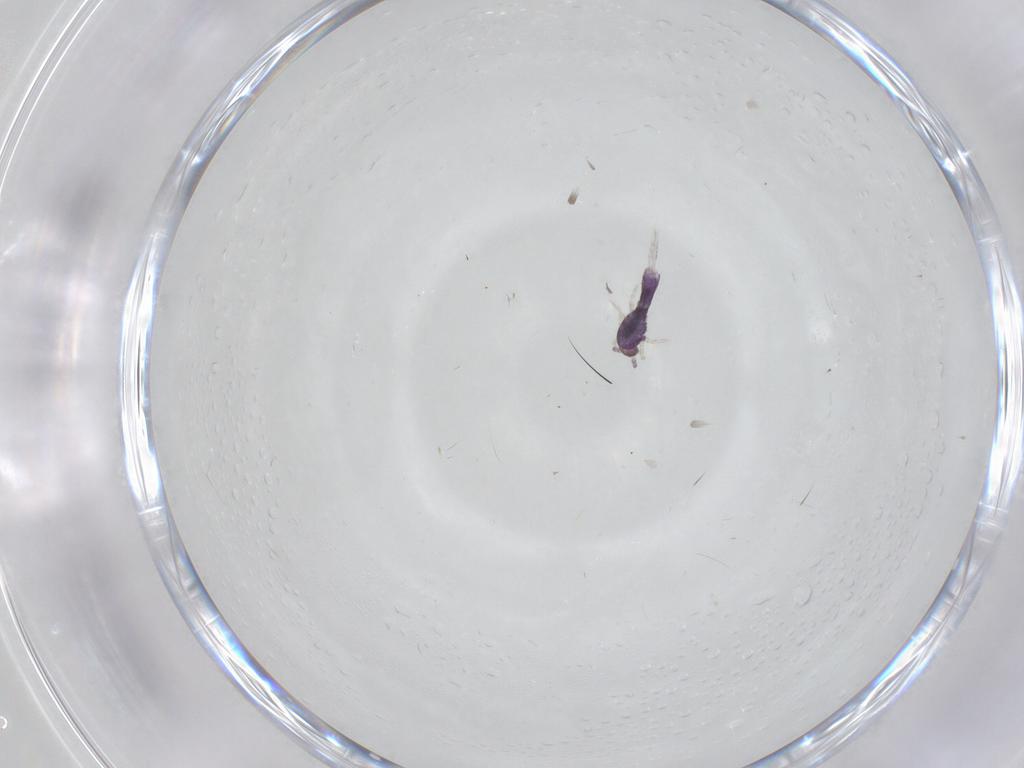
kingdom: Animalia
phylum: Arthropoda
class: Collembola
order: Entomobryomorpha
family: Entomobryidae
